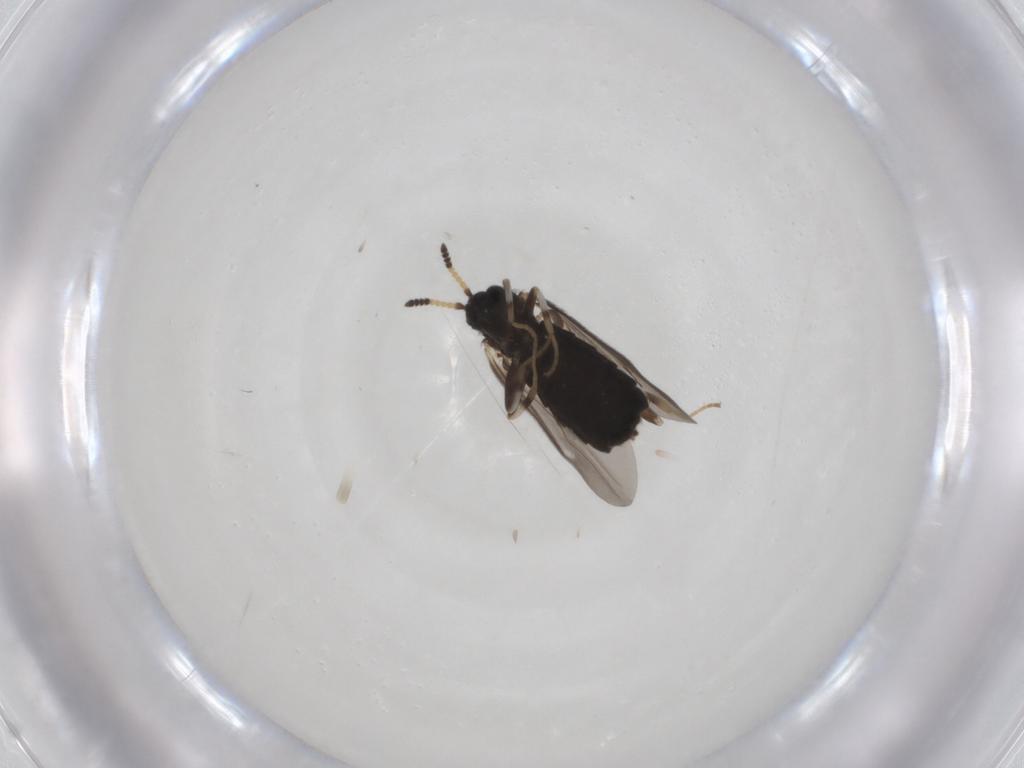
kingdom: Animalia
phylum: Arthropoda
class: Insecta
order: Diptera
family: Scatopsidae
